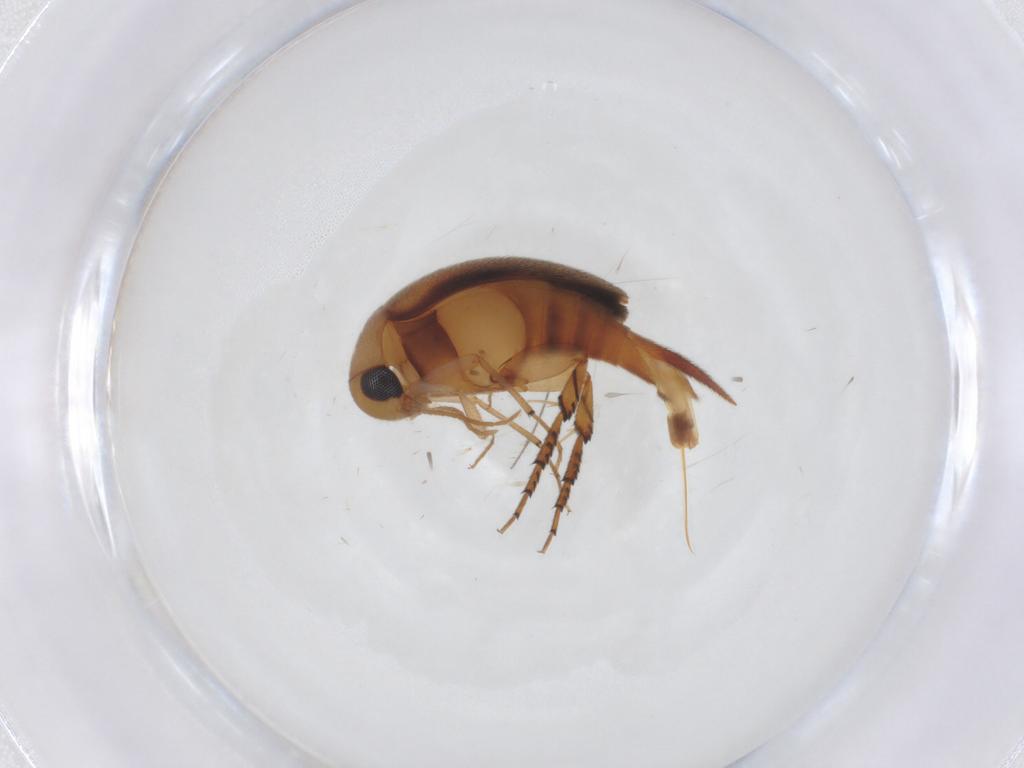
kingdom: Animalia
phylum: Arthropoda
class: Insecta
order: Coleoptera
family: Mordellidae
